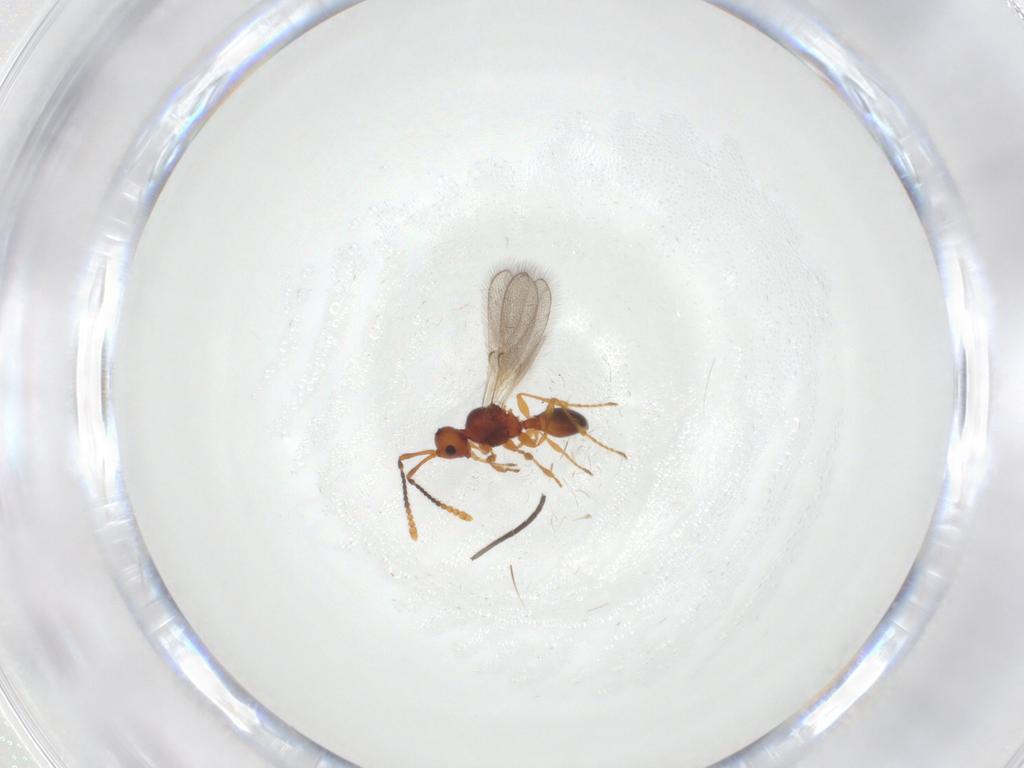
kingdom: Animalia
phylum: Arthropoda
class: Insecta
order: Hymenoptera
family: Diapriidae
